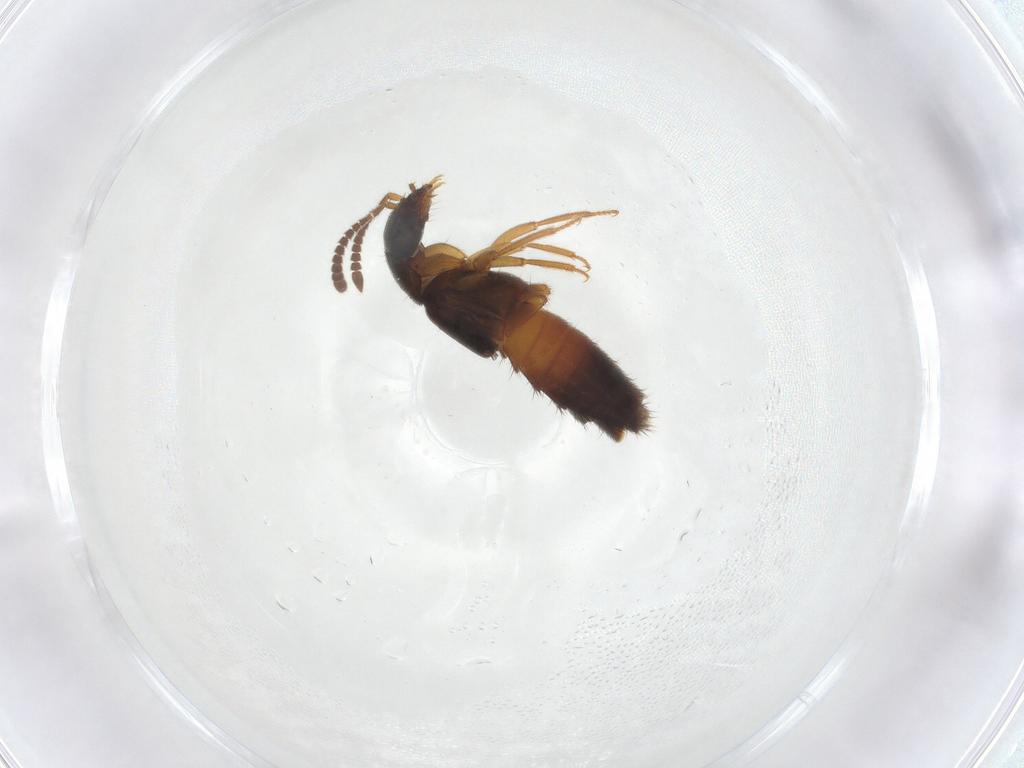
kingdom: Animalia
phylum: Arthropoda
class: Insecta
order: Coleoptera
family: Staphylinidae
